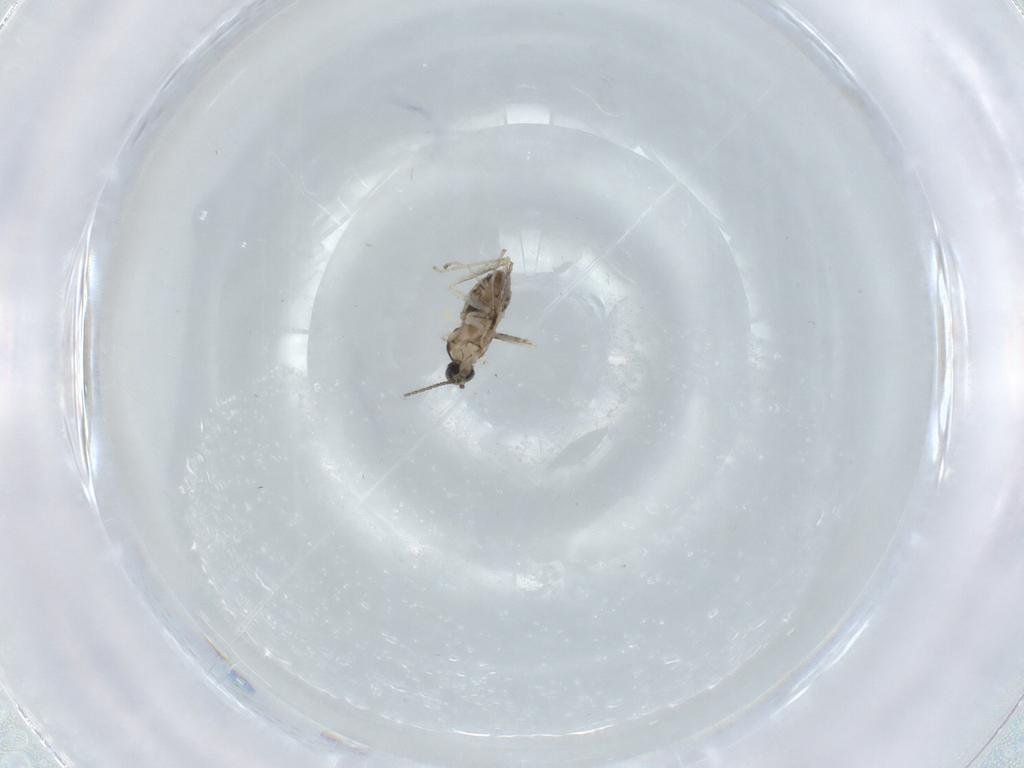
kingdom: Animalia
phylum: Arthropoda
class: Insecta
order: Diptera
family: Cecidomyiidae
